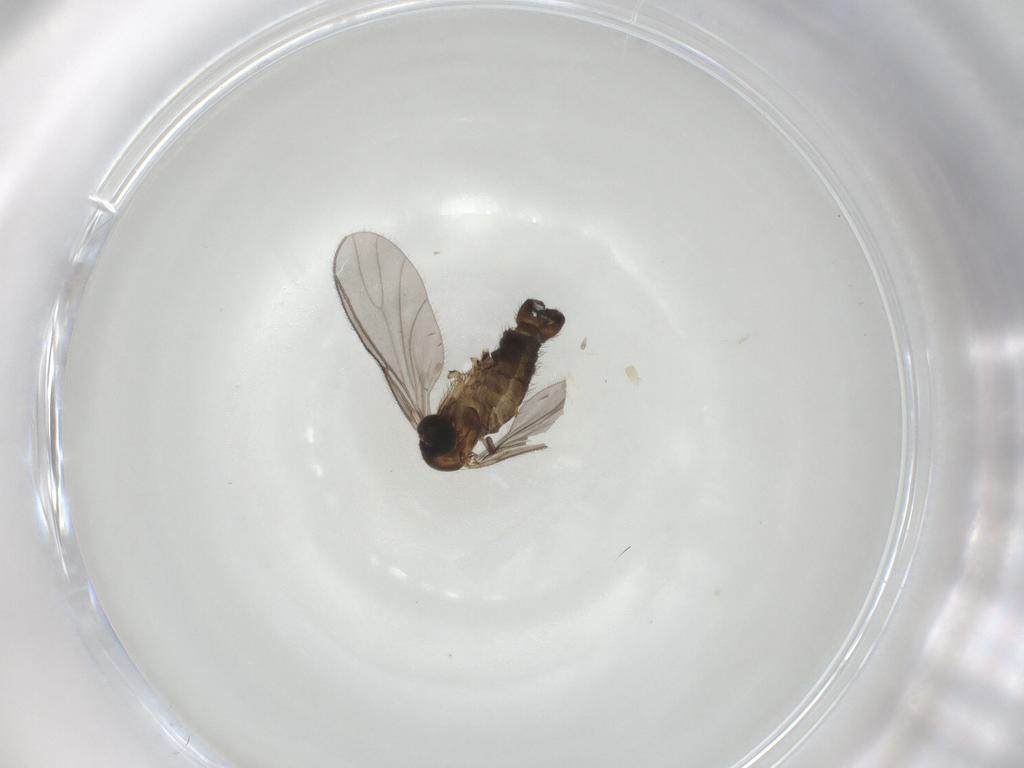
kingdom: Animalia
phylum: Arthropoda
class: Insecta
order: Diptera
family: Sciaridae
